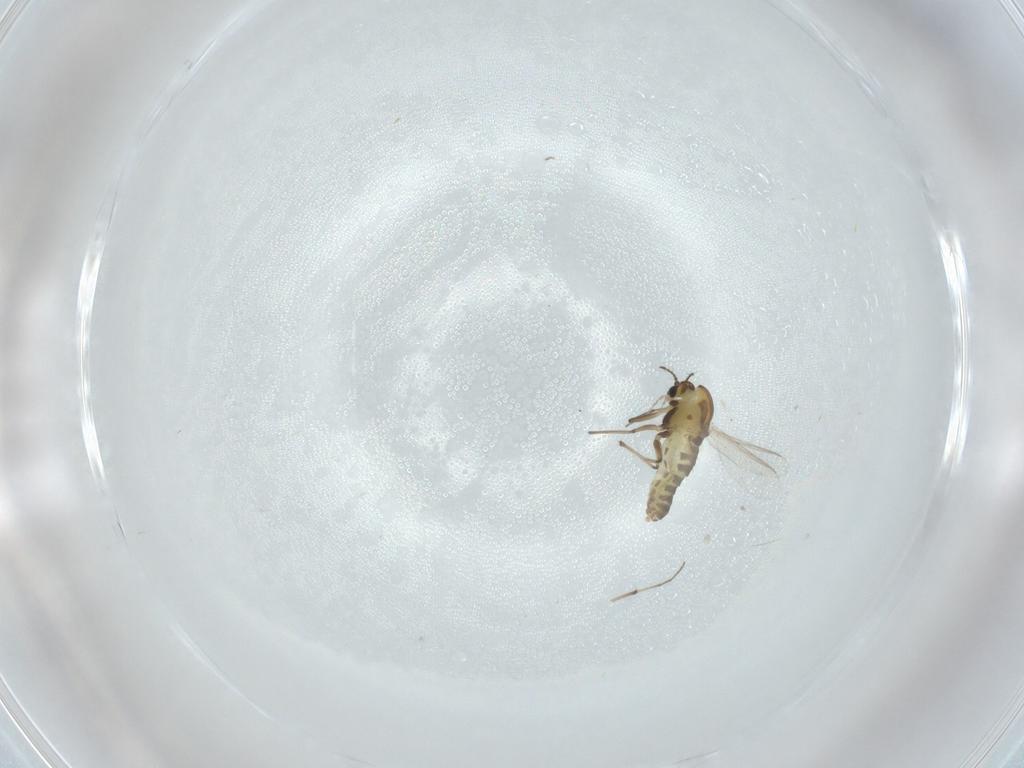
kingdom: Animalia
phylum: Arthropoda
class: Insecta
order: Diptera
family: Chironomidae
